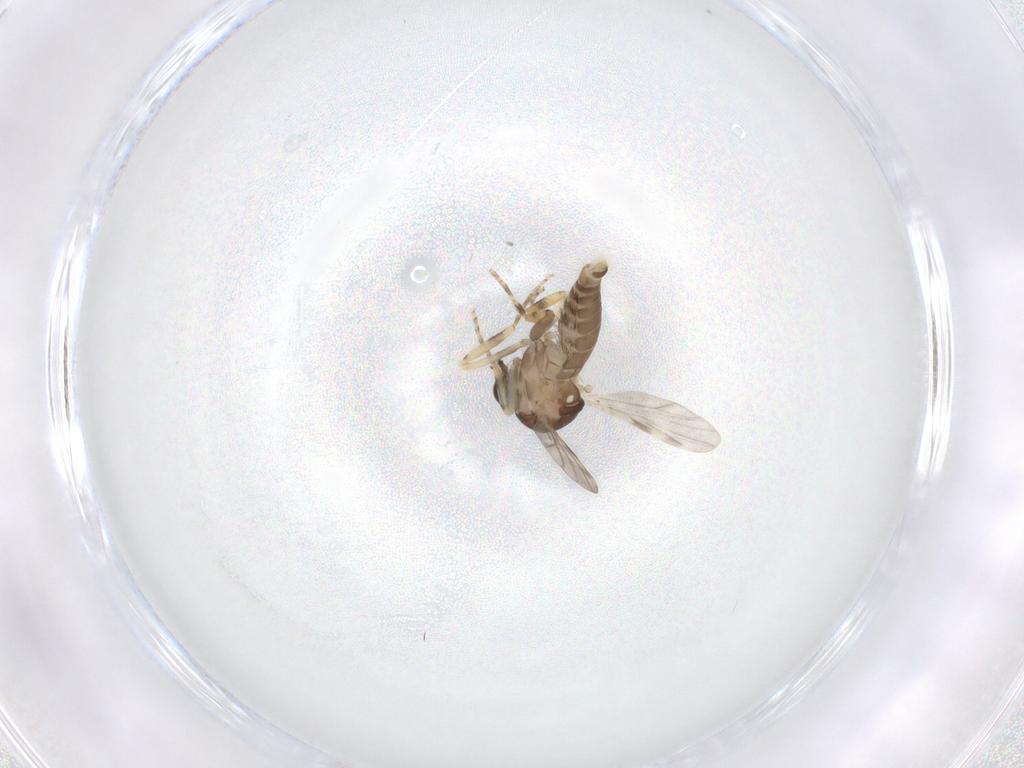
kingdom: Animalia
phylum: Arthropoda
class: Insecta
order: Diptera
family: Ceratopogonidae
